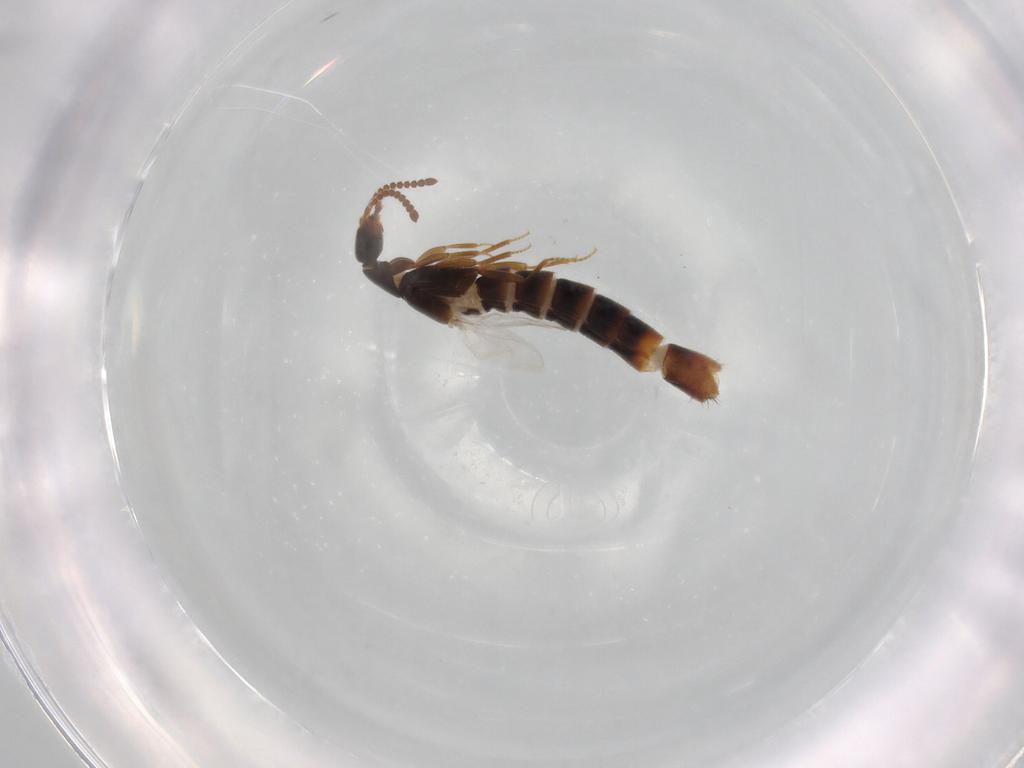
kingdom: Animalia
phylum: Arthropoda
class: Insecta
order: Coleoptera
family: Staphylinidae
